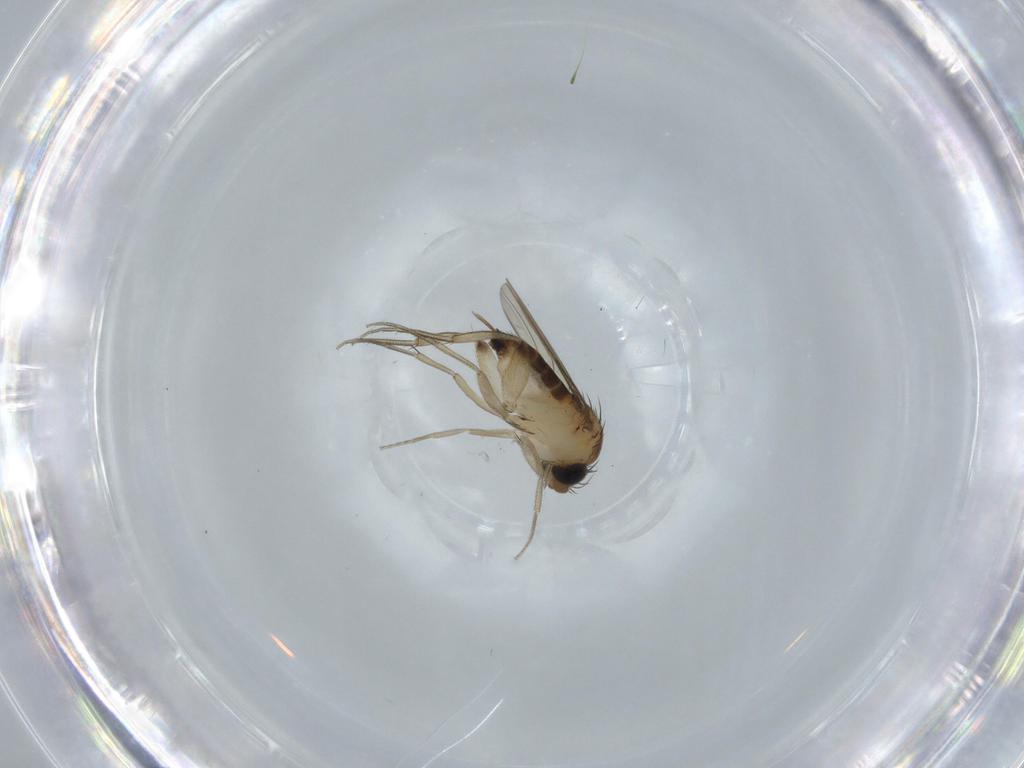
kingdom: Animalia
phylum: Arthropoda
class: Insecta
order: Diptera
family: Phoridae
